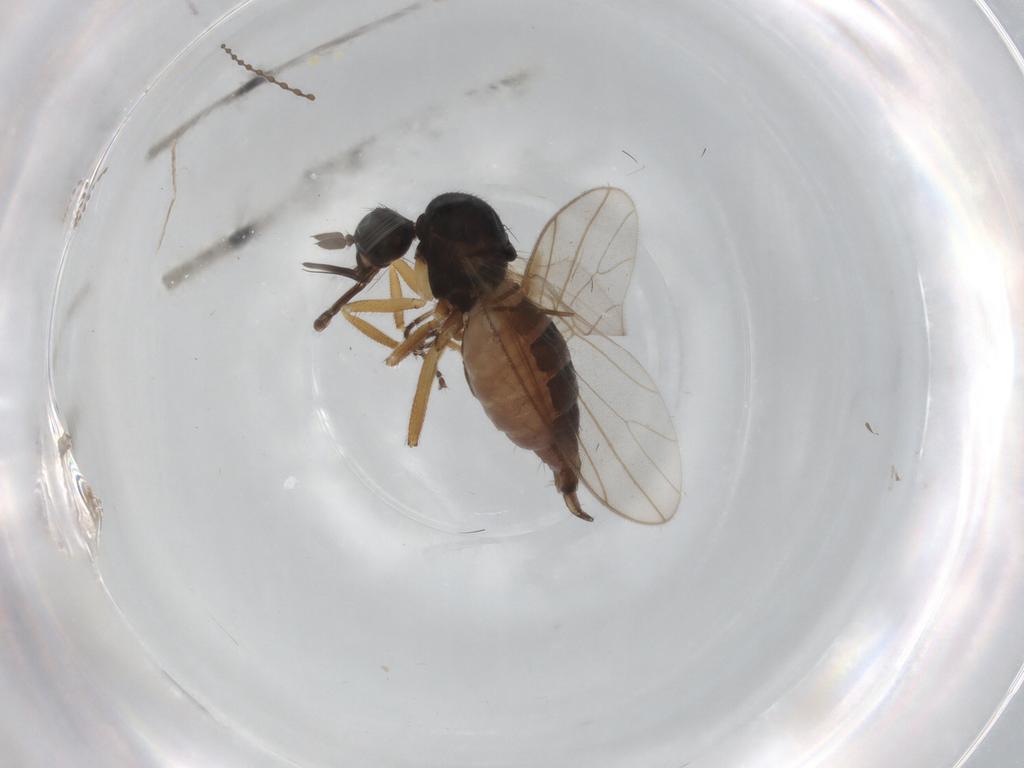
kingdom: Animalia
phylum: Arthropoda
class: Insecta
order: Diptera
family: Hybotidae
